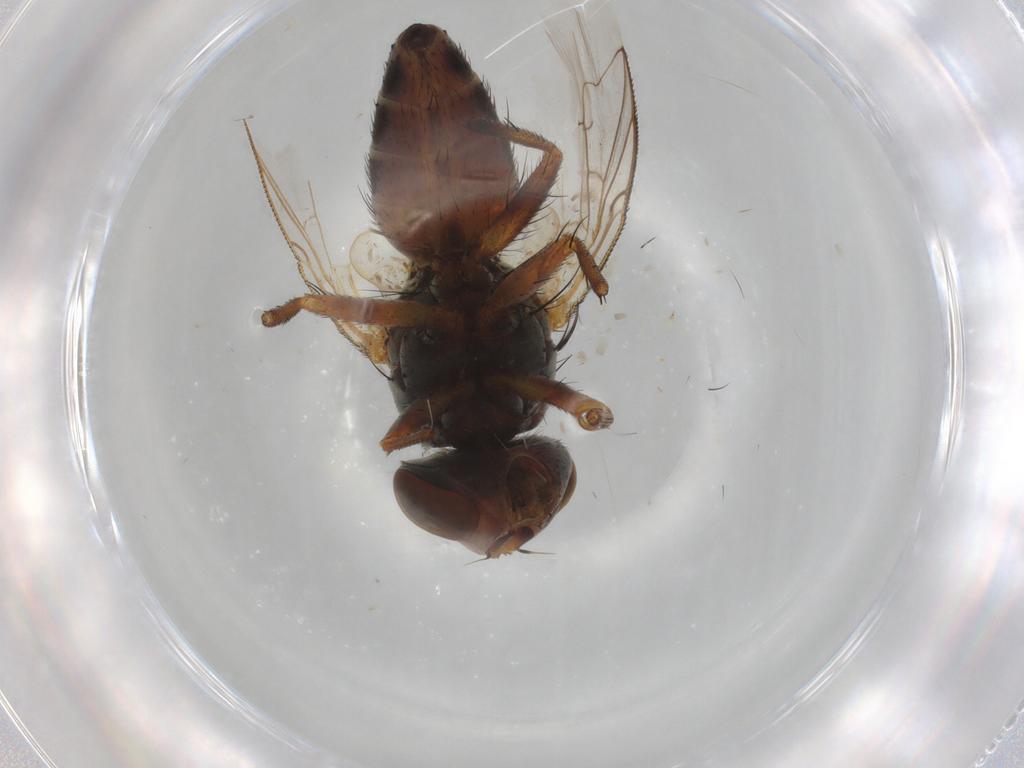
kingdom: Animalia
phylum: Arthropoda
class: Insecta
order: Diptera
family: Sarcophagidae
